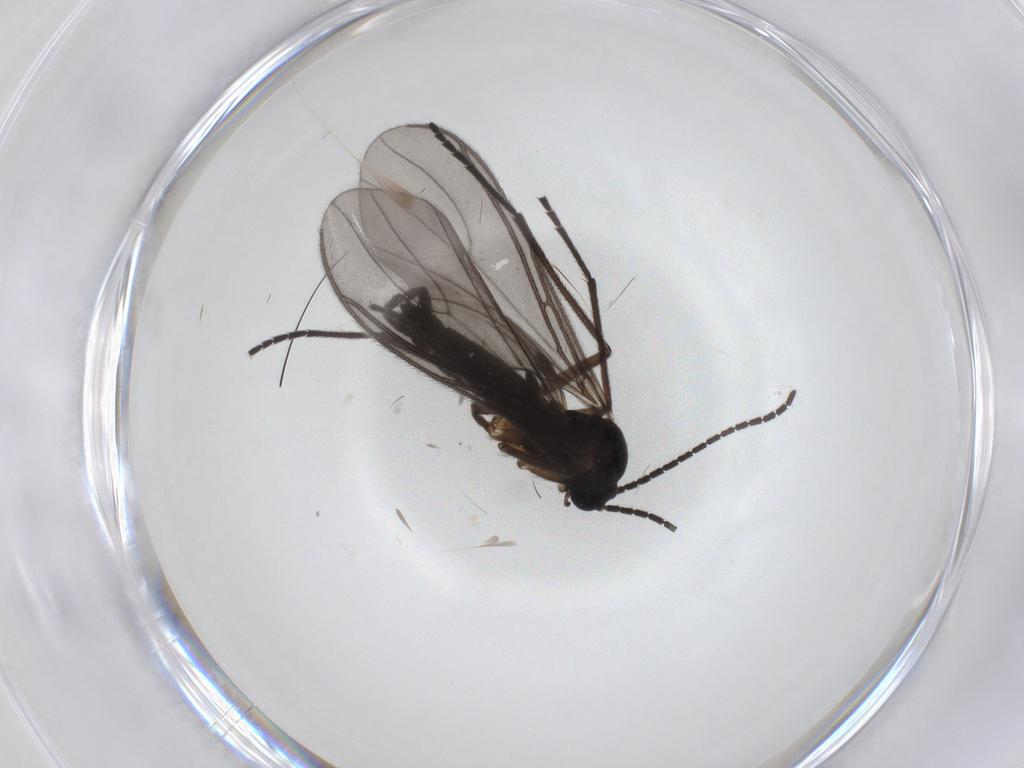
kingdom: Animalia
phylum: Arthropoda
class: Insecta
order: Diptera
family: Sciaridae
